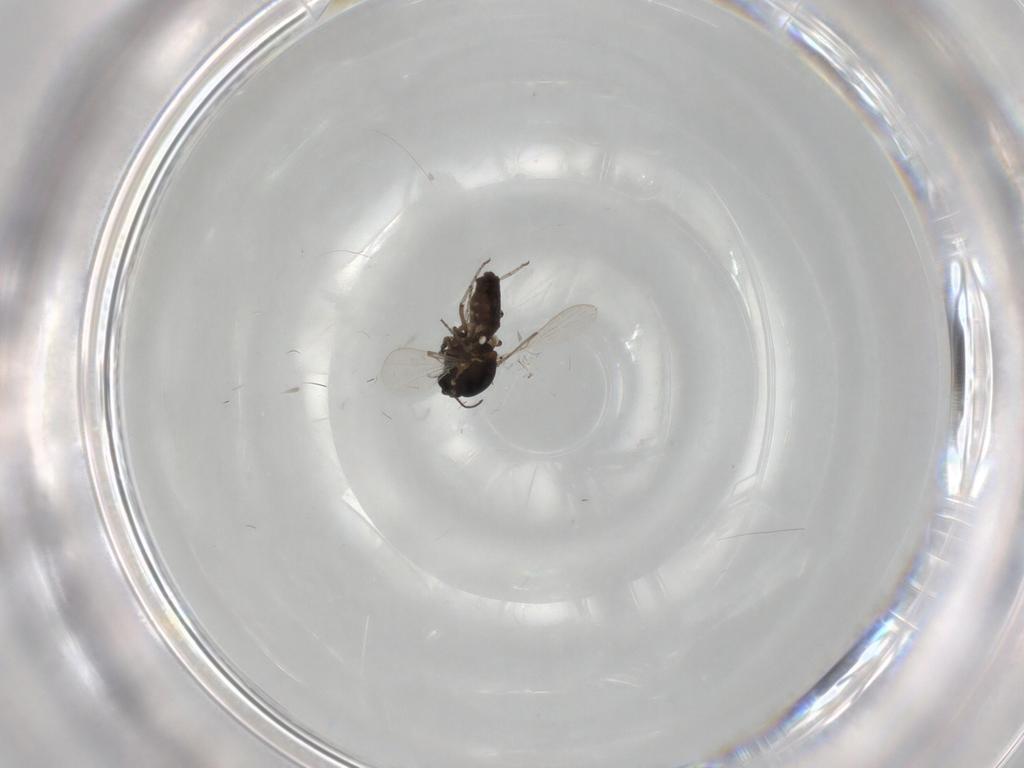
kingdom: Animalia
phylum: Arthropoda
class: Insecta
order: Diptera
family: Ceratopogonidae
